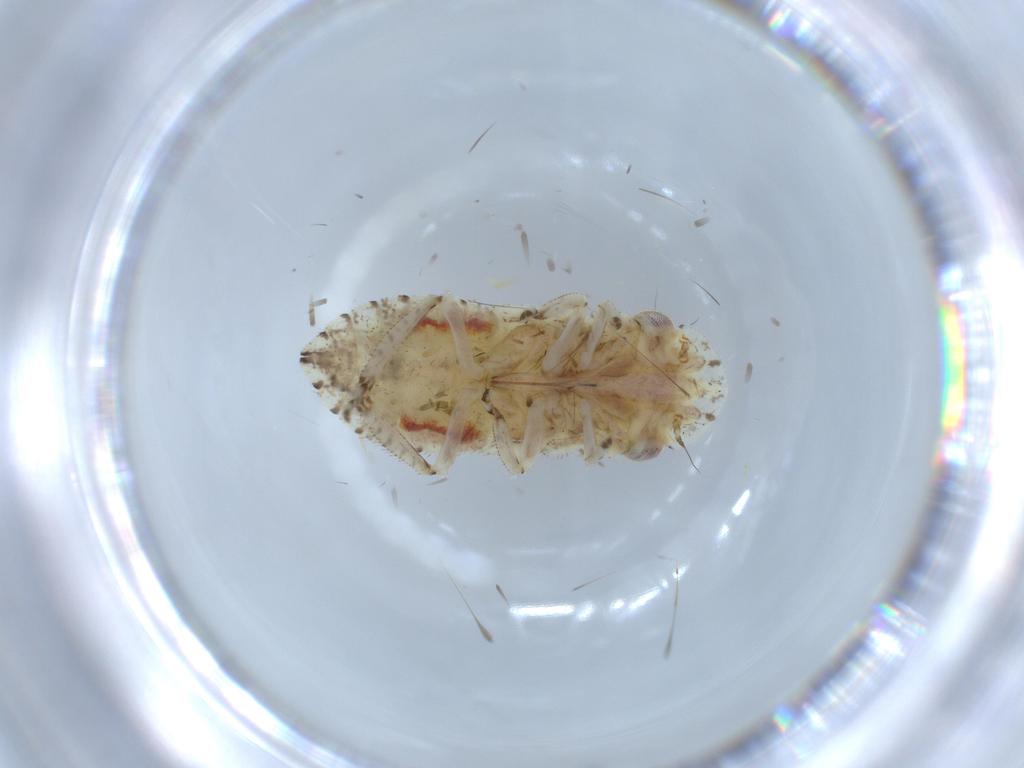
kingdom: Animalia
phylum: Arthropoda
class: Insecta
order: Hemiptera
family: Cicadellidae
